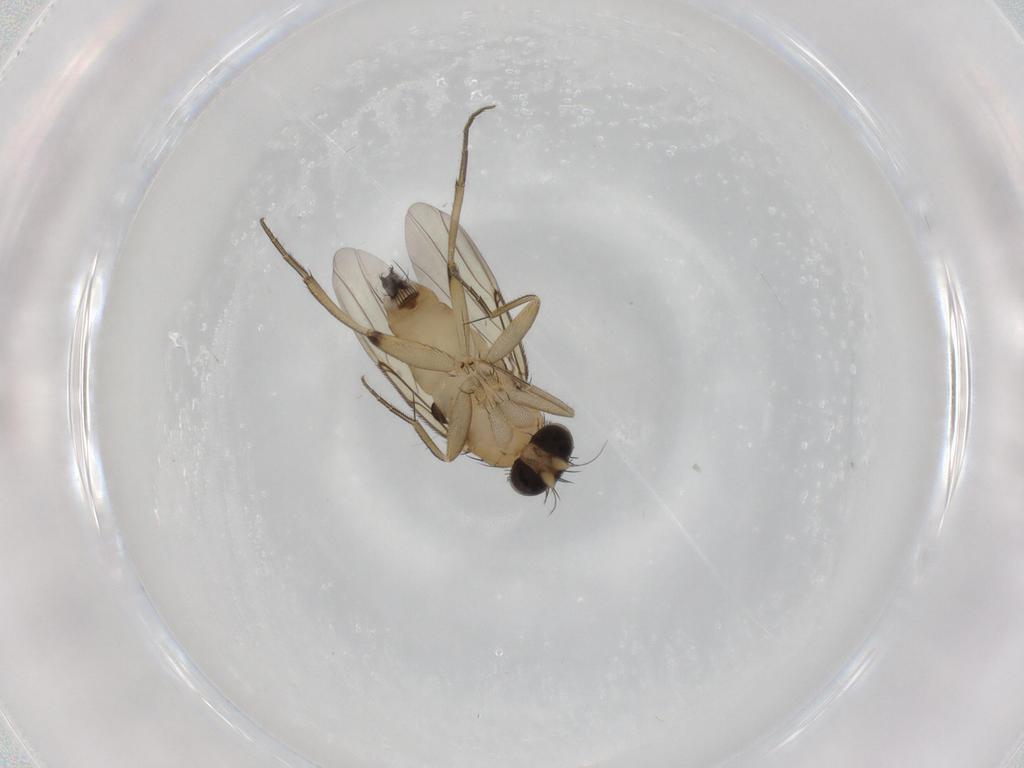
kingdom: Animalia
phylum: Arthropoda
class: Insecta
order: Diptera
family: Phoridae
